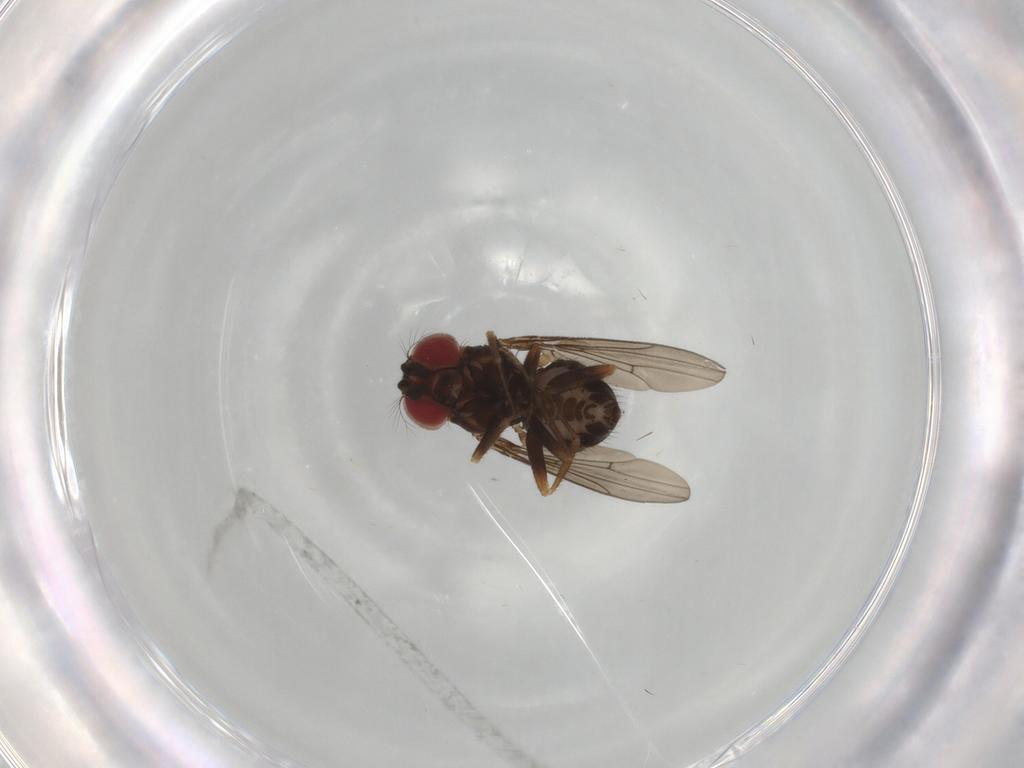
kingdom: Animalia
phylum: Arthropoda
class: Insecta
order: Diptera
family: Drosophilidae
